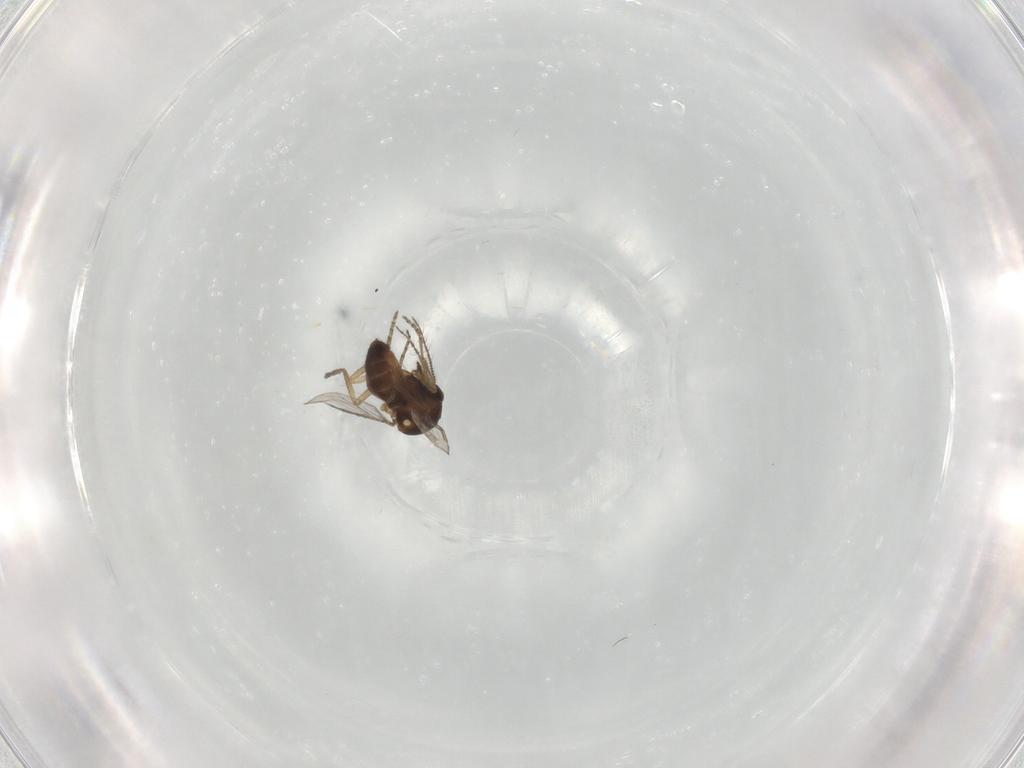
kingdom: Animalia
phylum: Arthropoda
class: Insecta
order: Diptera
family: Ceratopogonidae
